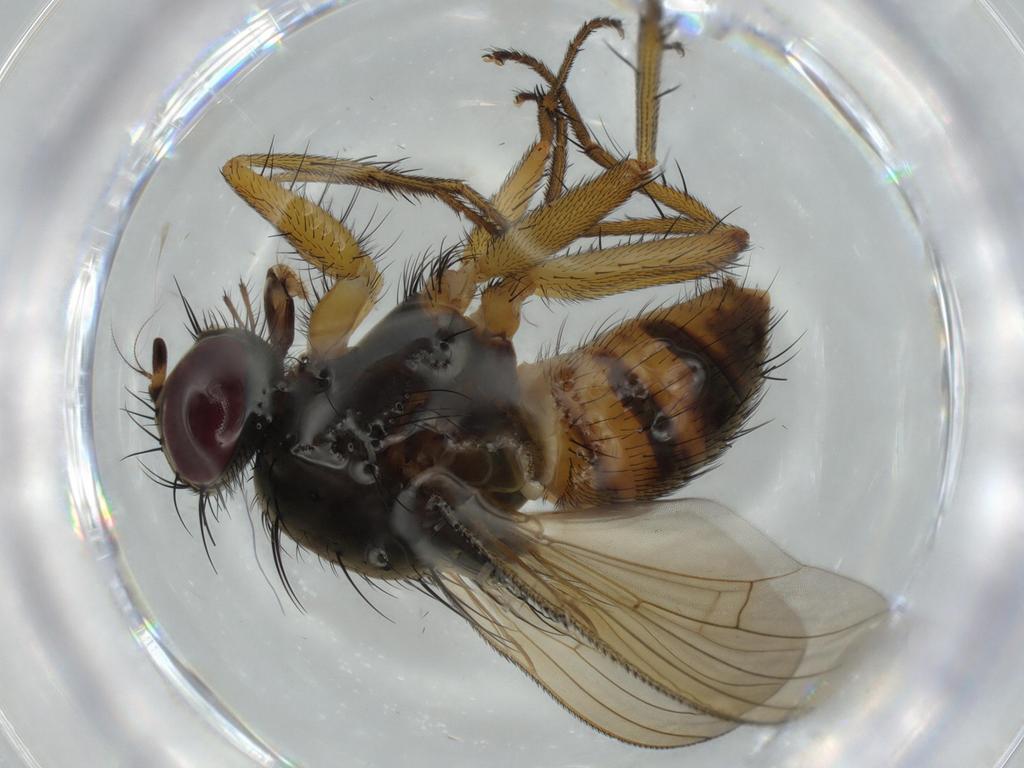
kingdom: Animalia
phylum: Arthropoda
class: Insecta
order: Diptera
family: Muscidae
